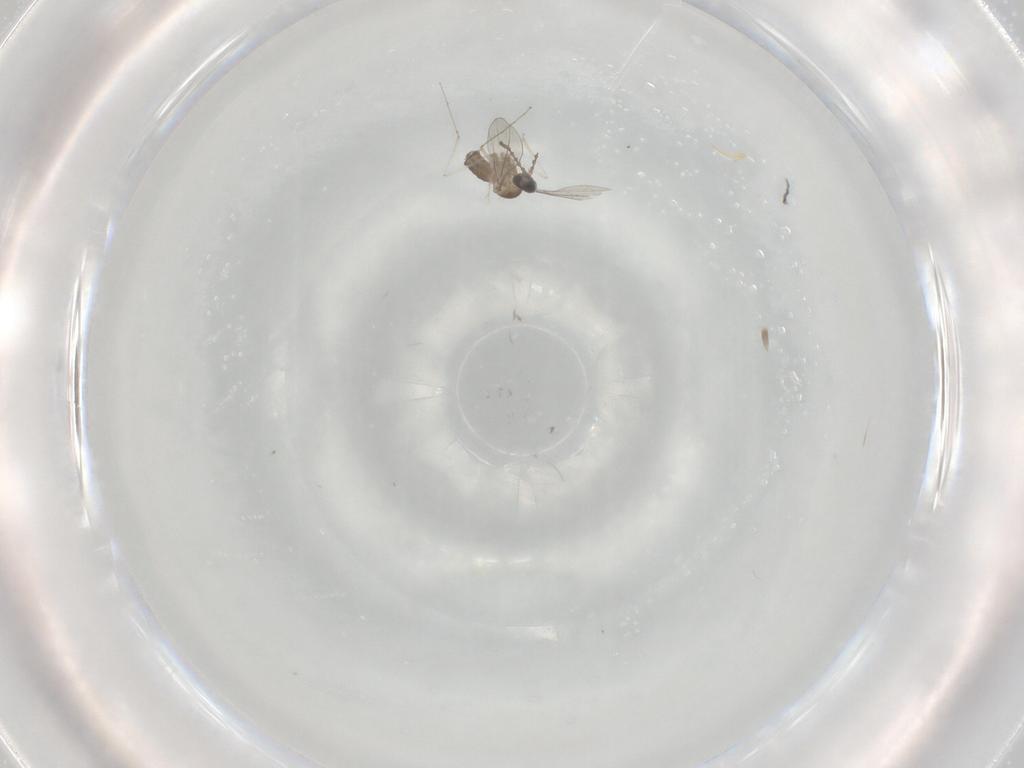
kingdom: Animalia
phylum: Arthropoda
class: Insecta
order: Diptera
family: Cecidomyiidae
